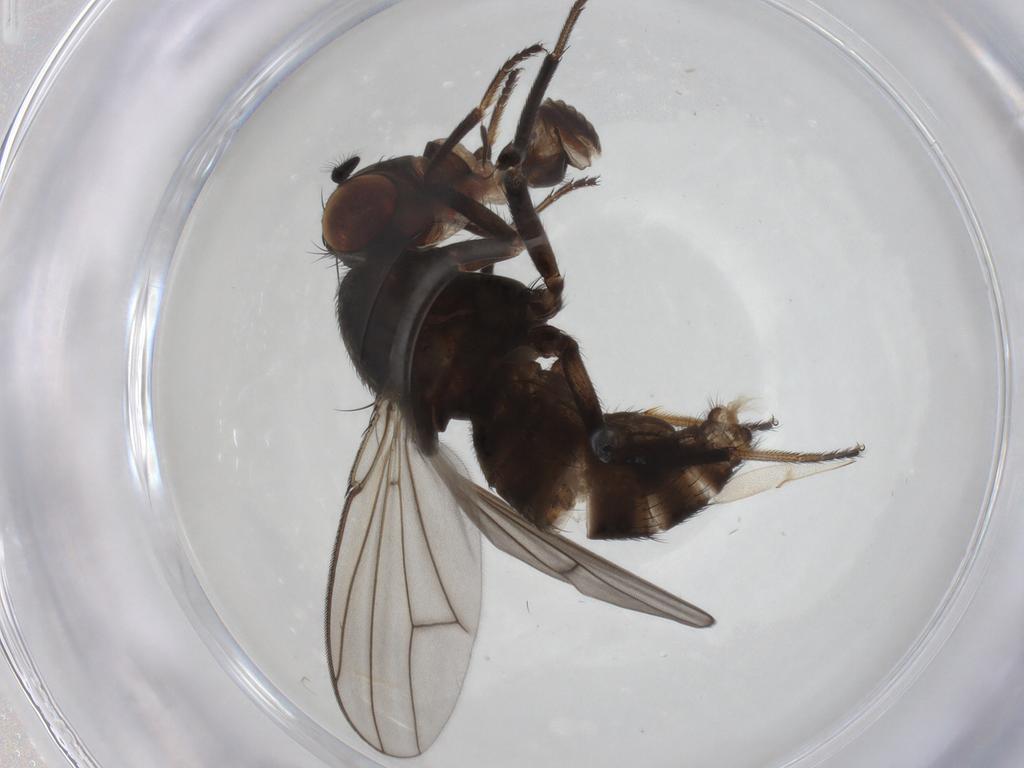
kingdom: Animalia
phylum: Arthropoda
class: Insecta
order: Diptera
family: Ephydridae
